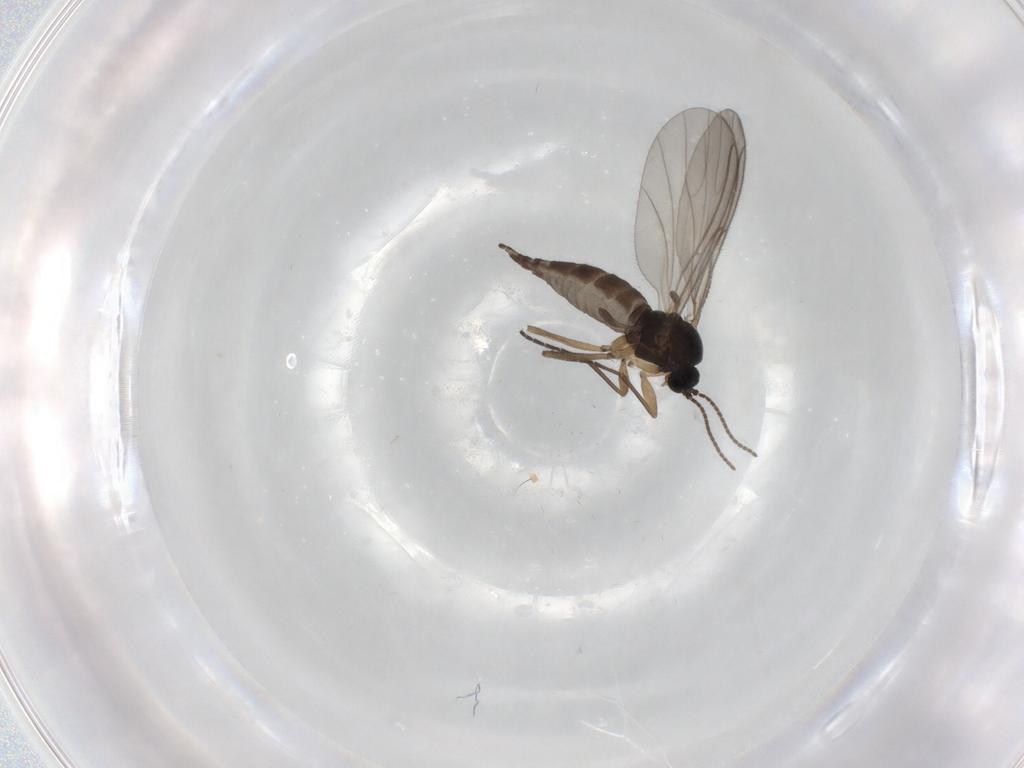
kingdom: Animalia
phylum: Arthropoda
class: Insecta
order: Diptera
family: Sciaridae
